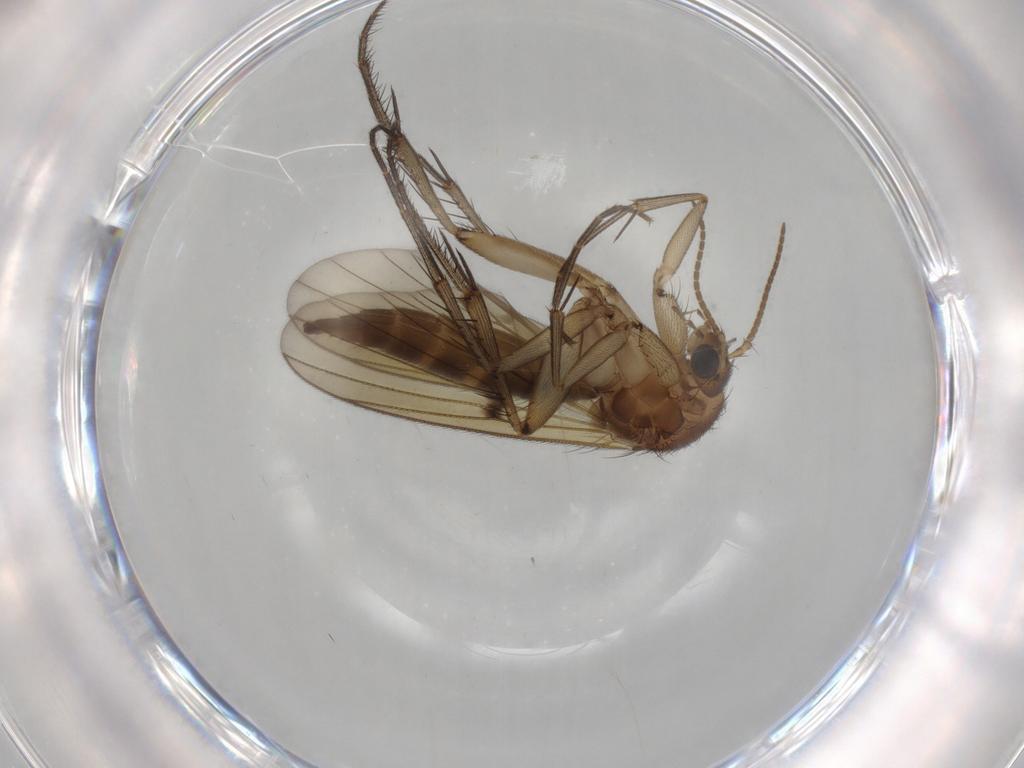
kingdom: Animalia
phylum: Arthropoda
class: Insecta
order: Diptera
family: Mycetophilidae
